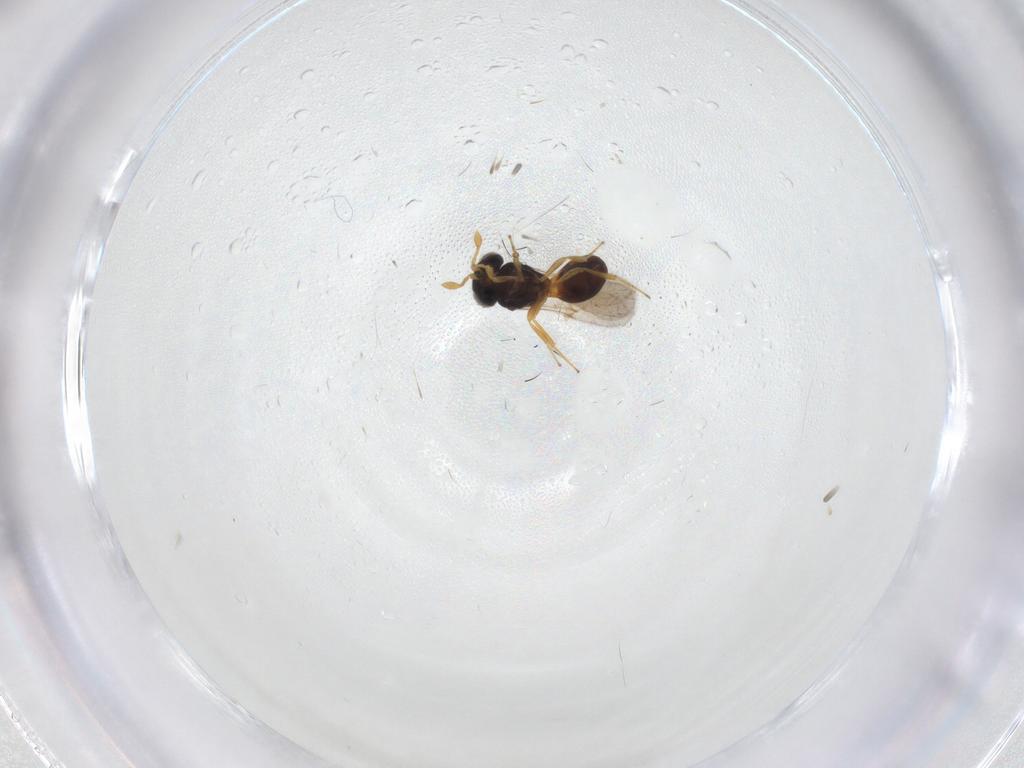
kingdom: Animalia
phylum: Arthropoda
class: Insecta
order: Hymenoptera
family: Scelionidae
